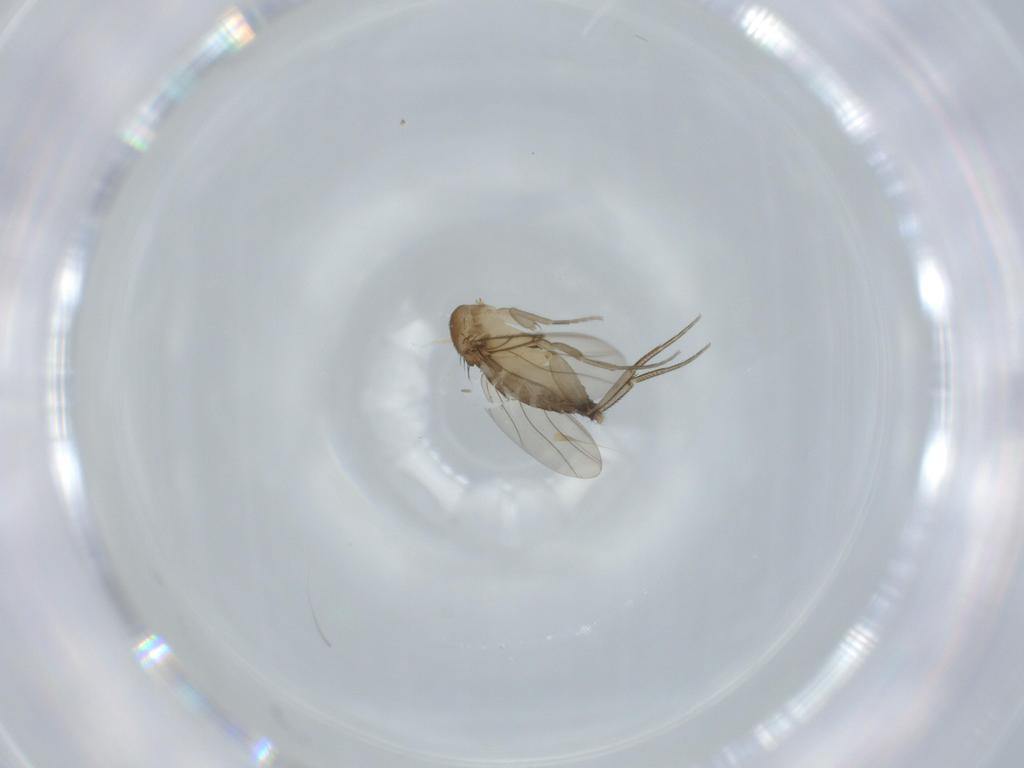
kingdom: Animalia
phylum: Arthropoda
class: Insecta
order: Diptera
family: Phoridae
